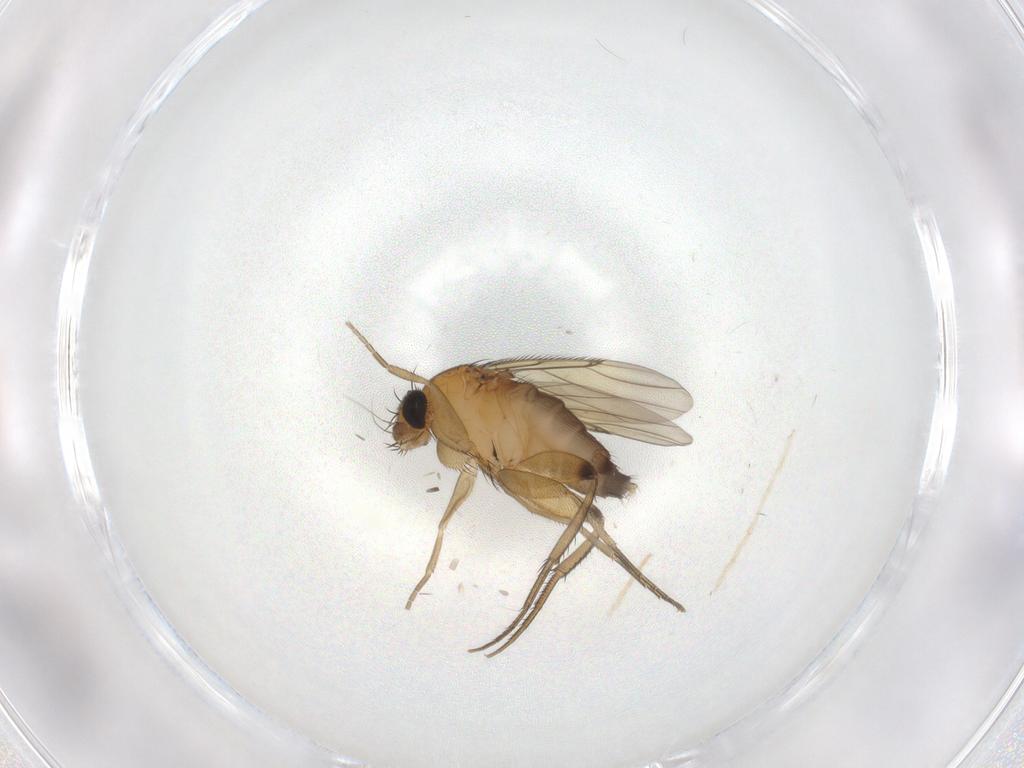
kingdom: Animalia
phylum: Arthropoda
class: Insecta
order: Diptera
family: Phoridae
